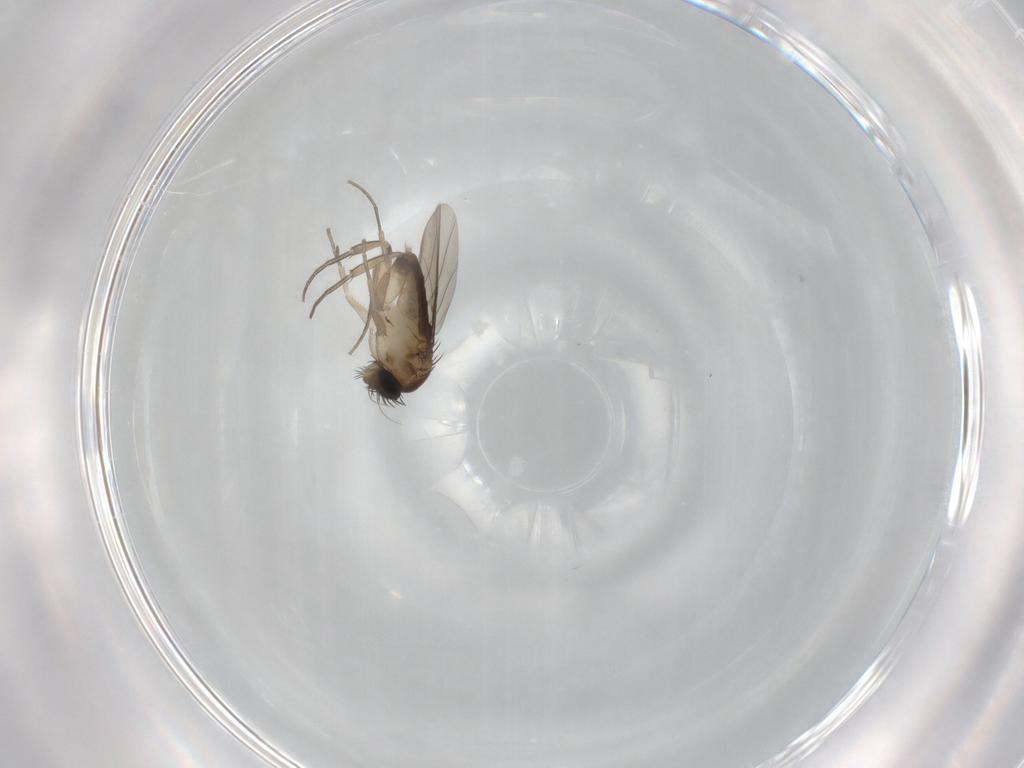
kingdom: Animalia
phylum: Arthropoda
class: Insecta
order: Diptera
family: Phoridae
